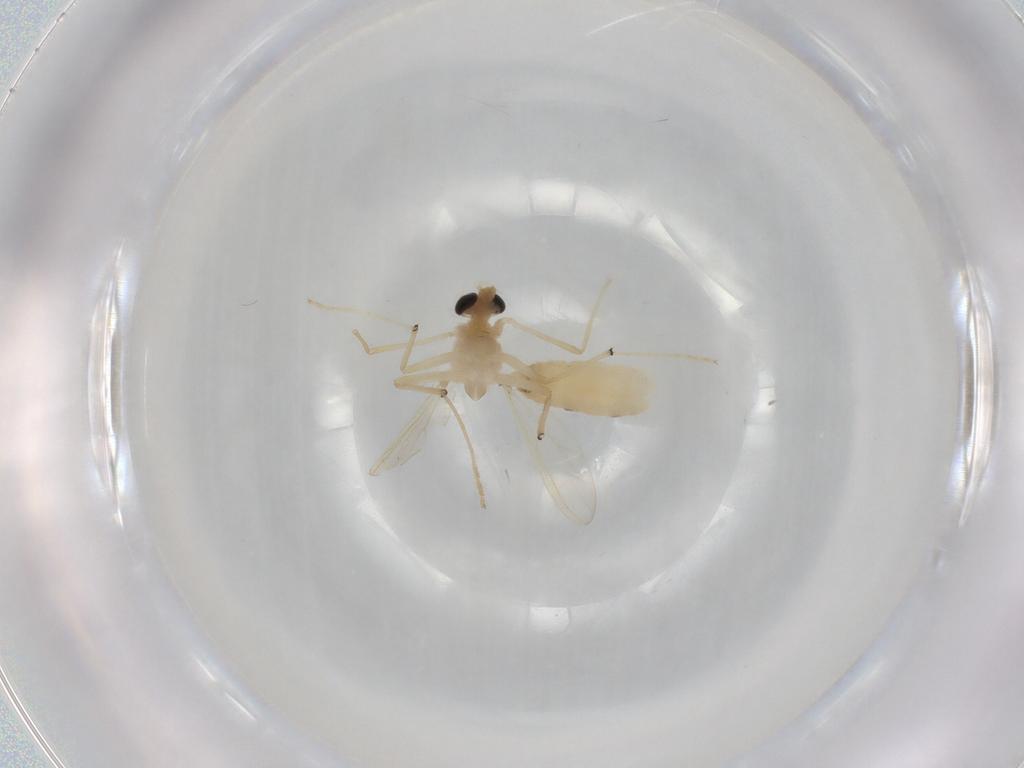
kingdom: Animalia
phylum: Arthropoda
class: Insecta
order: Diptera
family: Chironomidae
